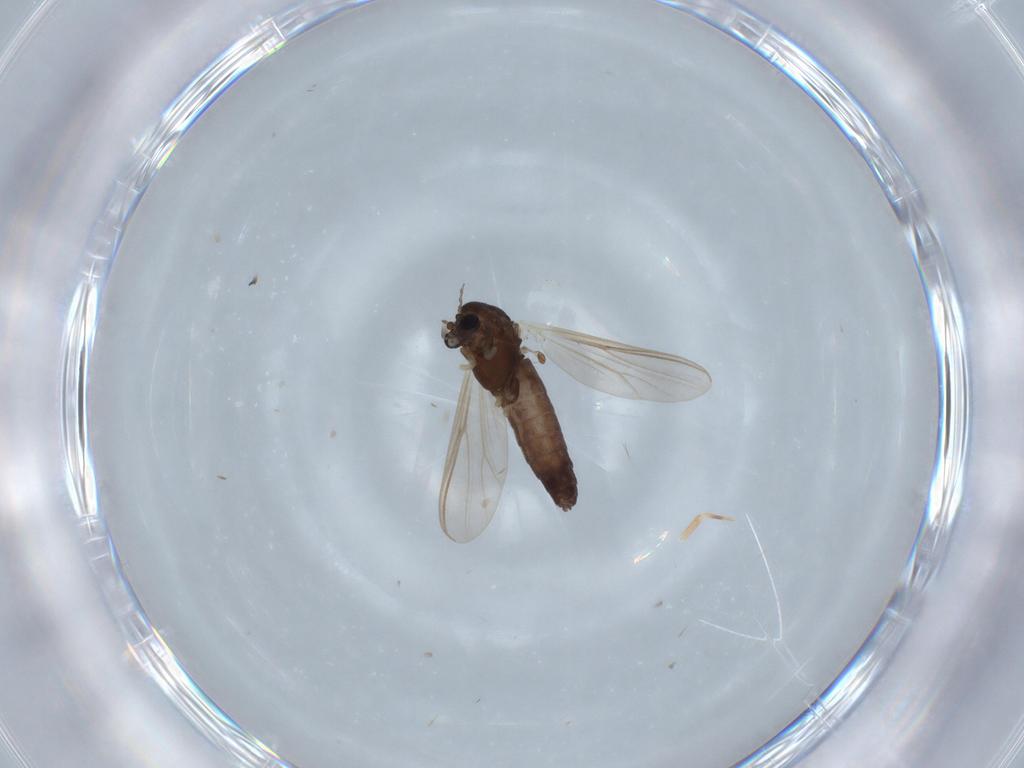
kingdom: Animalia
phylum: Arthropoda
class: Insecta
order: Diptera
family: Chironomidae
